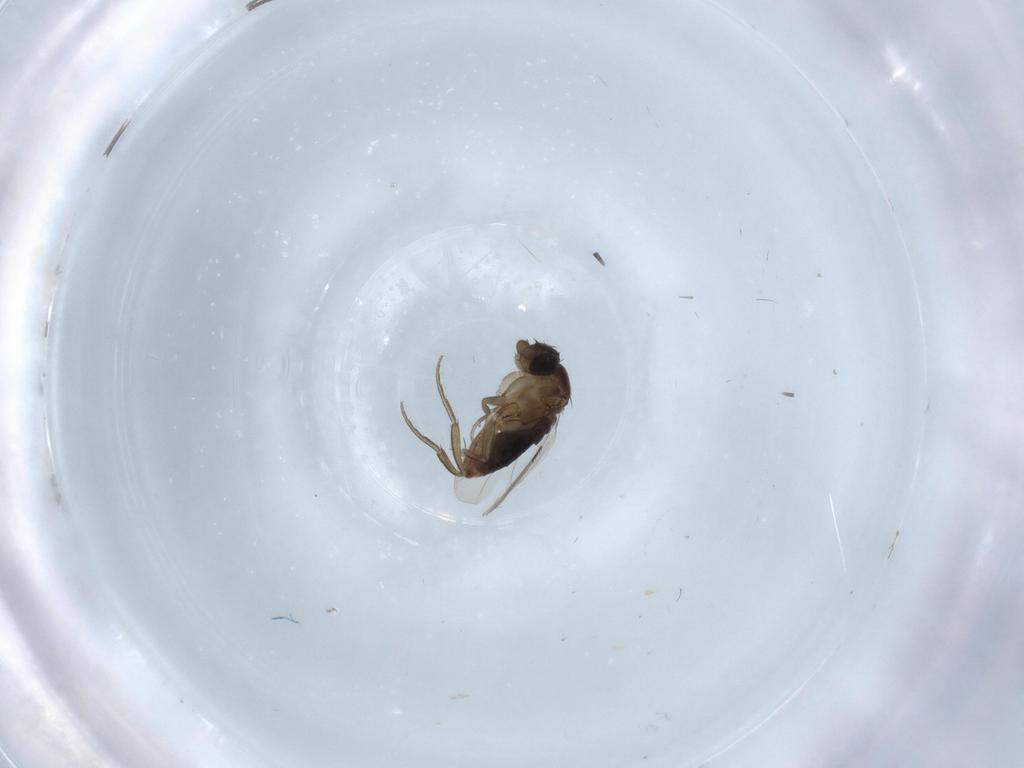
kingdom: Animalia
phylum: Arthropoda
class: Insecta
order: Diptera
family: Phoridae
